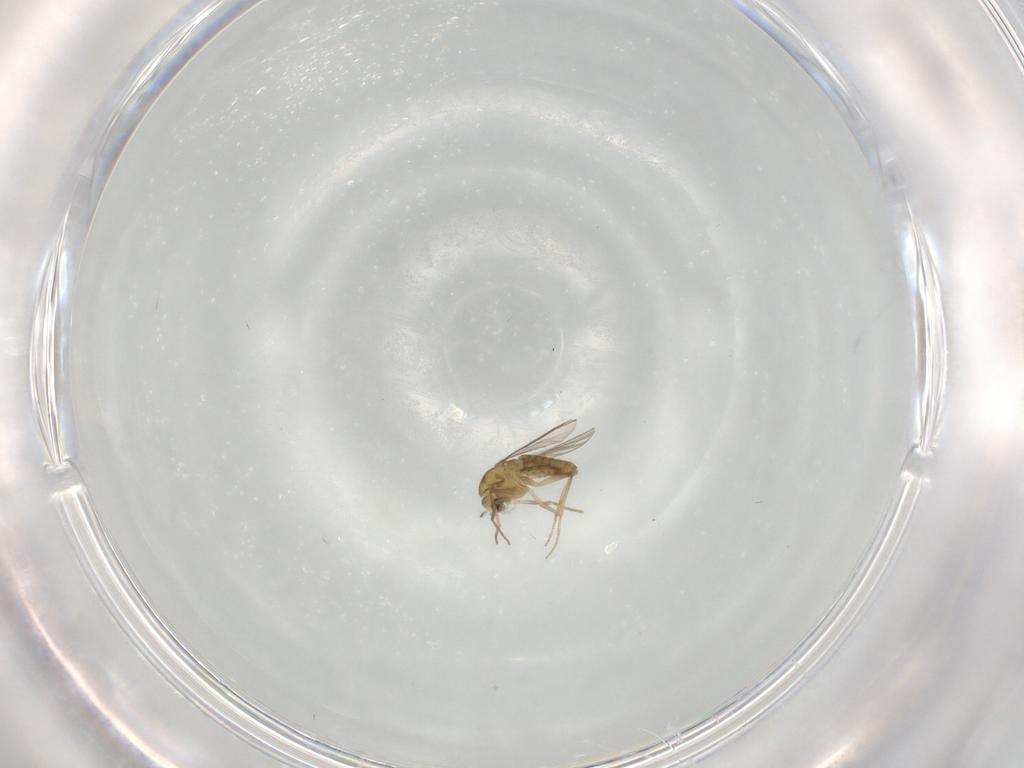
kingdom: Animalia
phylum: Arthropoda
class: Insecta
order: Diptera
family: Chironomidae
